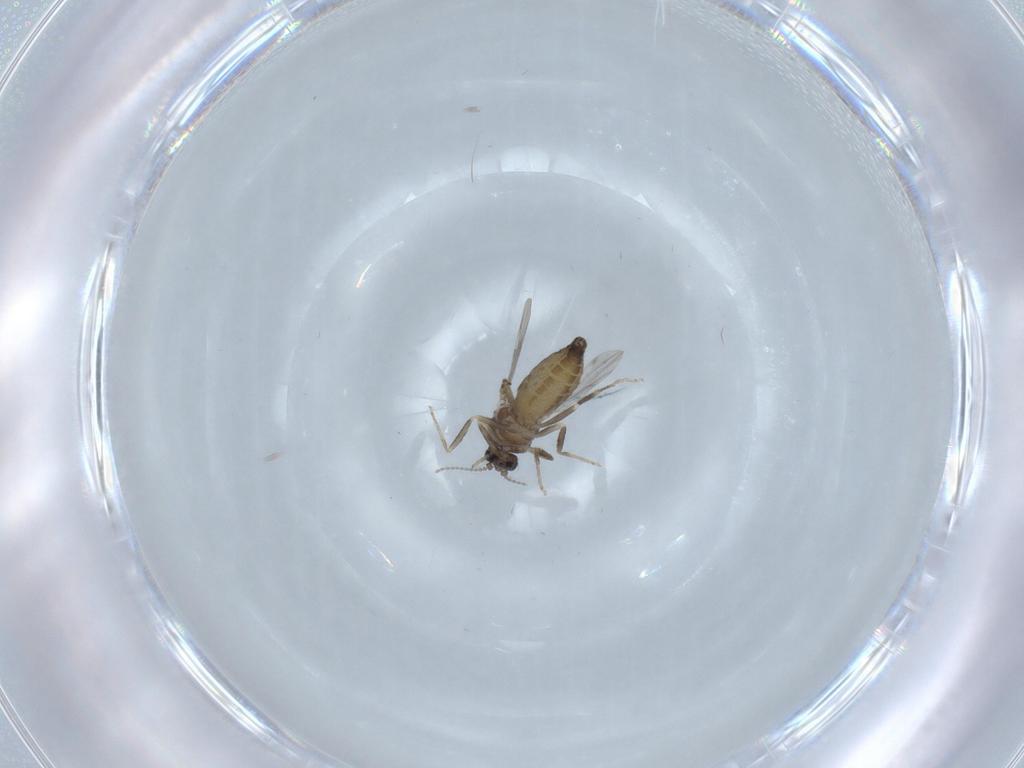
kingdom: Animalia
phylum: Arthropoda
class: Insecta
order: Diptera
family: Ceratopogonidae
